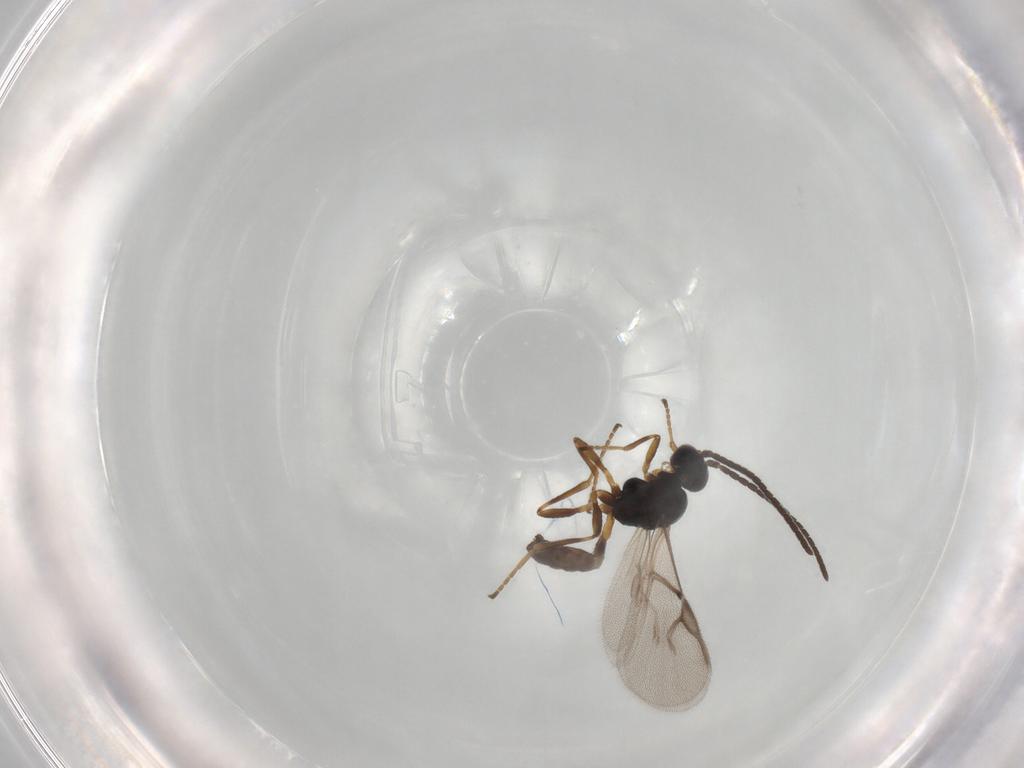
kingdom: Animalia
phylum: Arthropoda
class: Insecta
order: Hymenoptera
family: Braconidae
